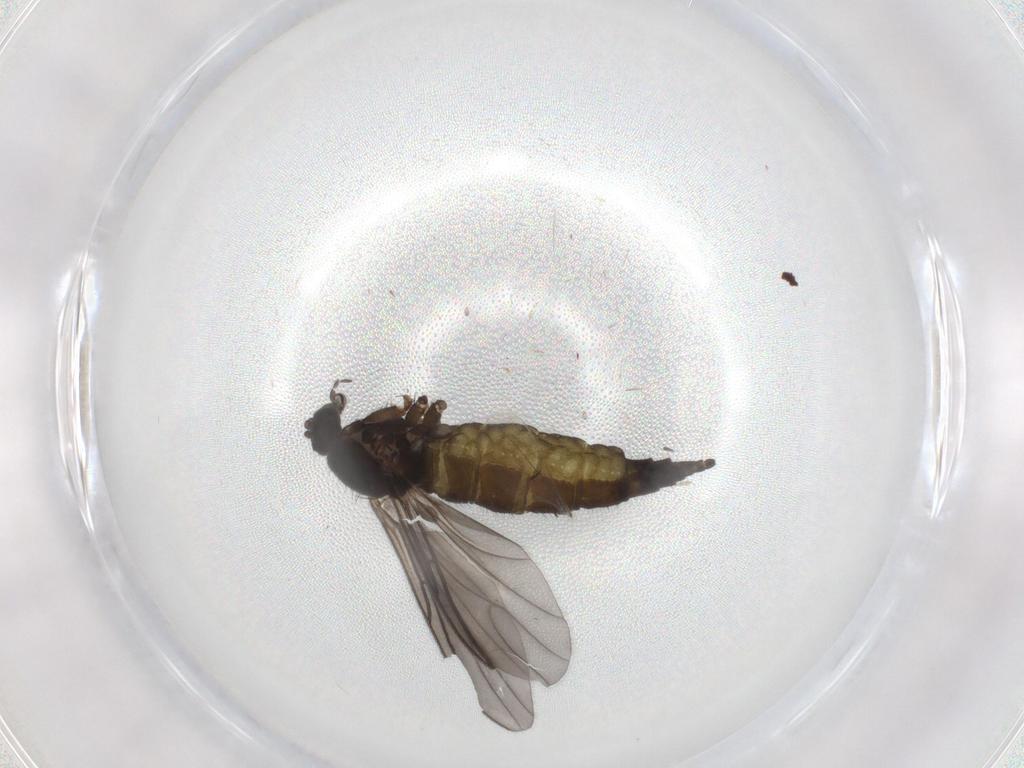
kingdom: Animalia
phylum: Arthropoda
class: Insecta
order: Diptera
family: Sciaridae
